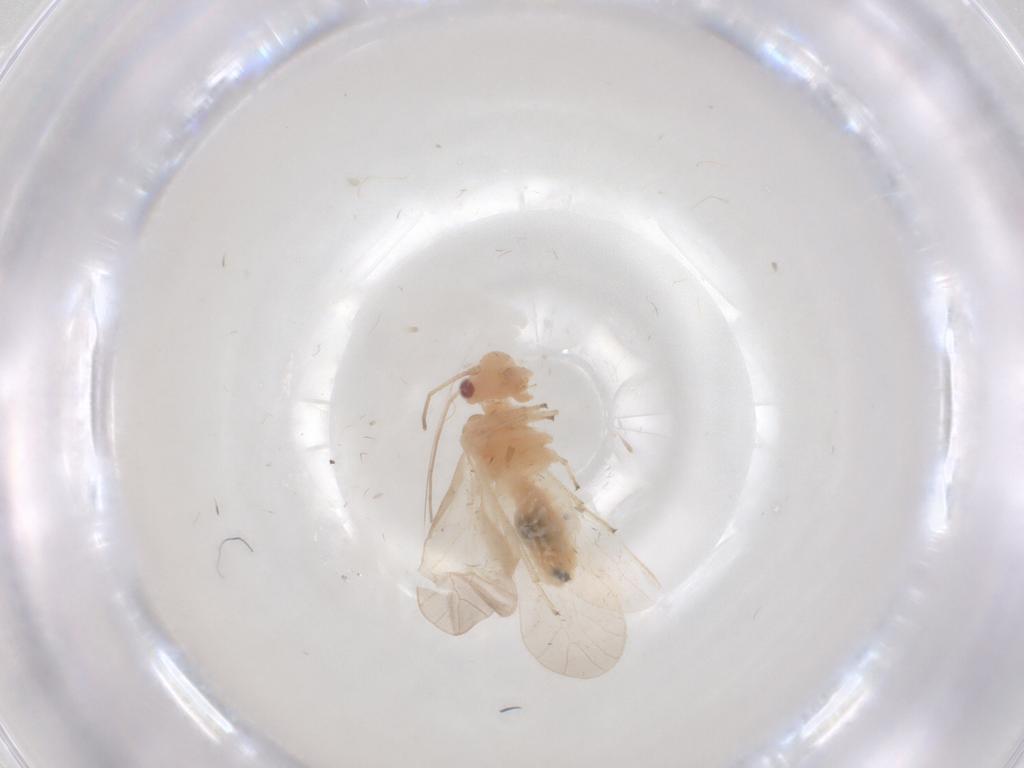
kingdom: Animalia
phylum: Arthropoda
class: Insecta
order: Psocodea
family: Caeciliusidae
